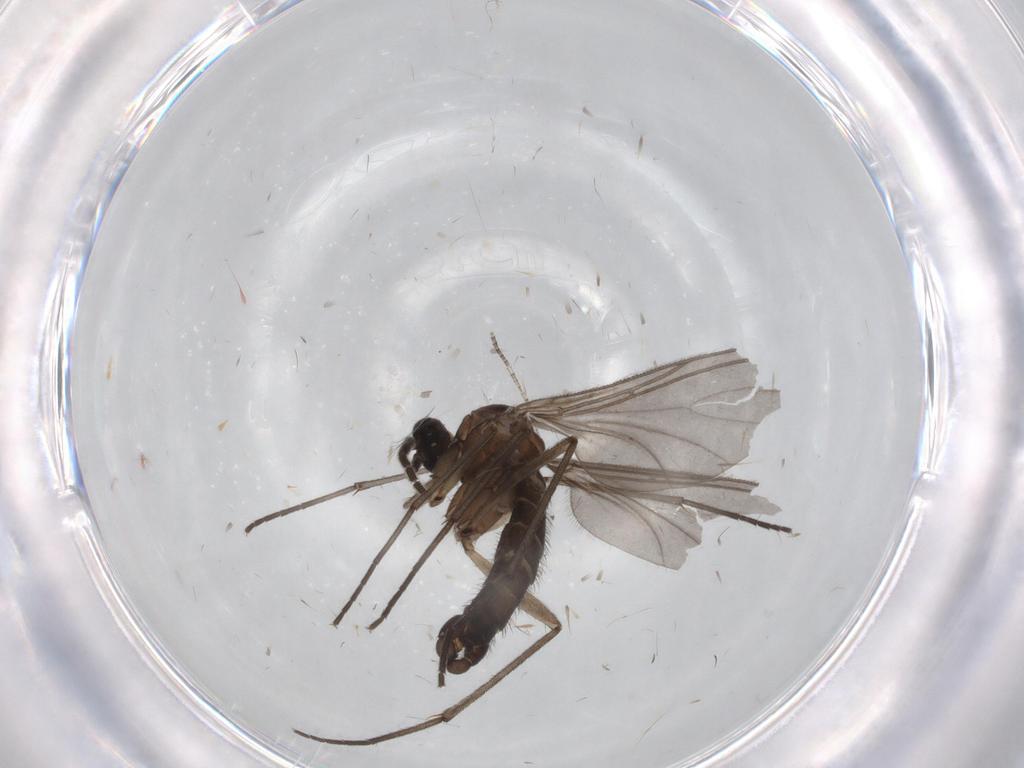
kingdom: Animalia
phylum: Arthropoda
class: Insecta
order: Diptera
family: Sciaridae
